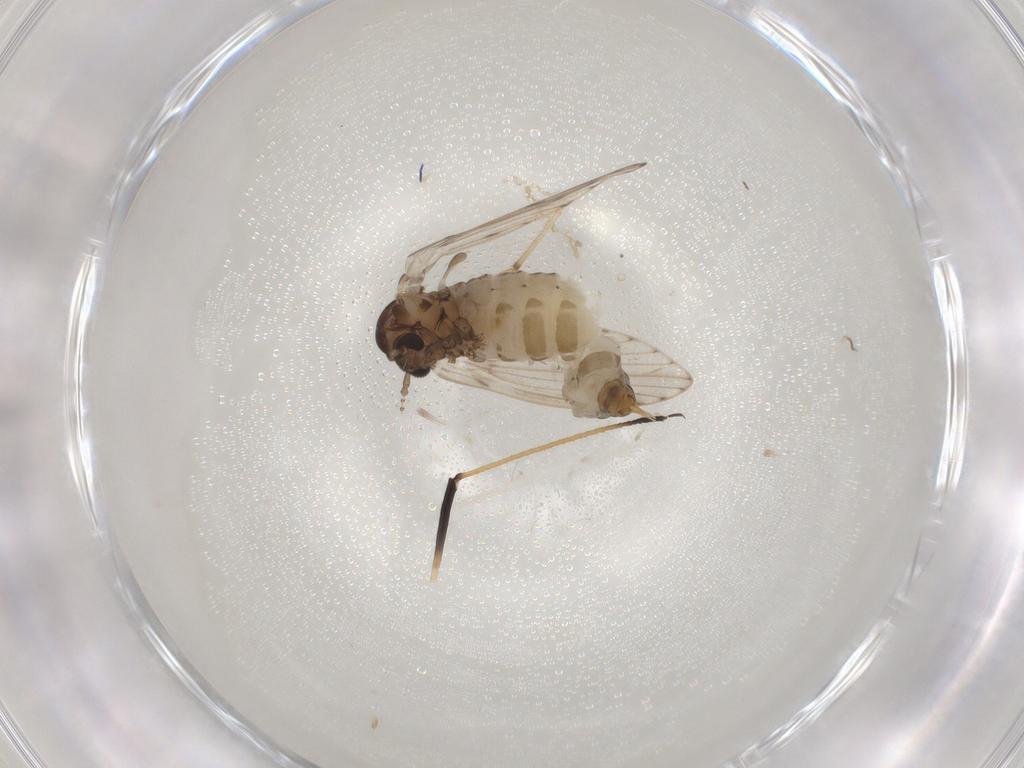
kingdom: Animalia
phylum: Arthropoda
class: Insecta
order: Diptera
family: Psychodidae
